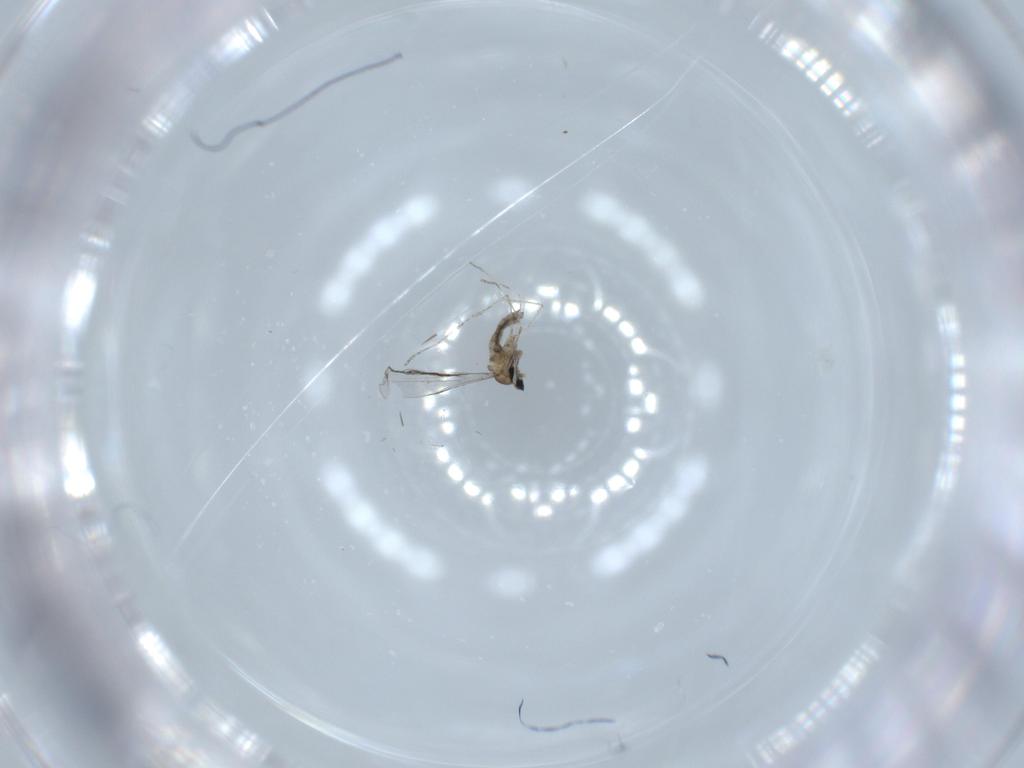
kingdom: Animalia
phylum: Arthropoda
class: Insecta
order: Diptera
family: Cecidomyiidae
